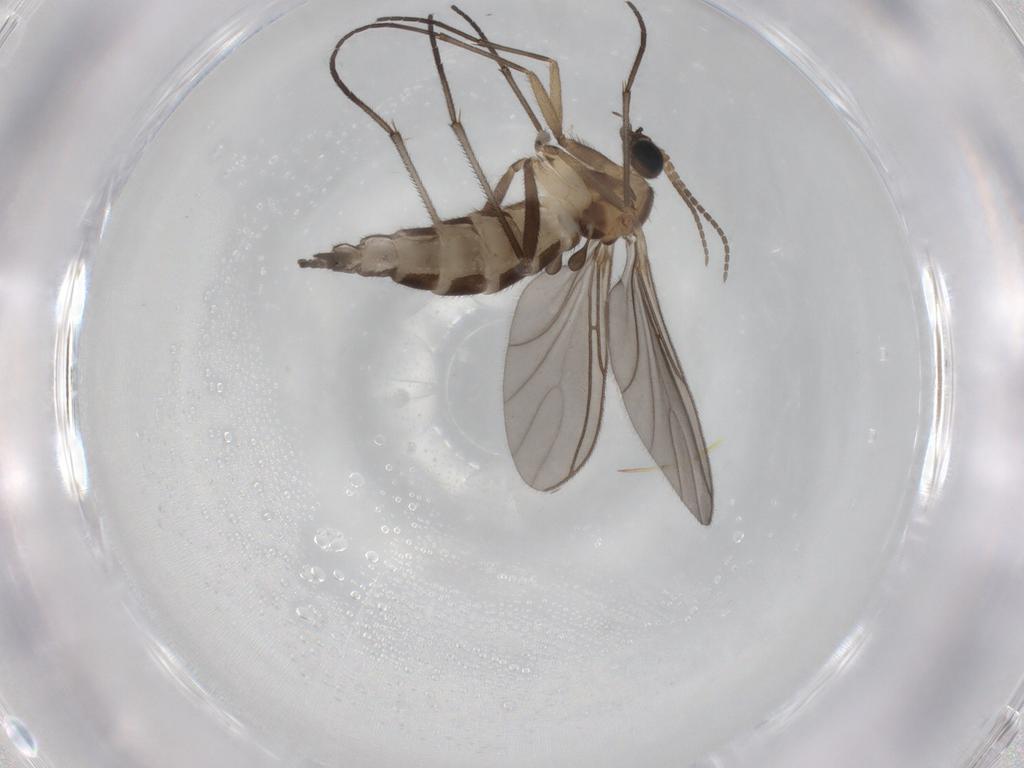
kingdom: Animalia
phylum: Arthropoda
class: Insecta
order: Diptera
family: Sciaridae
